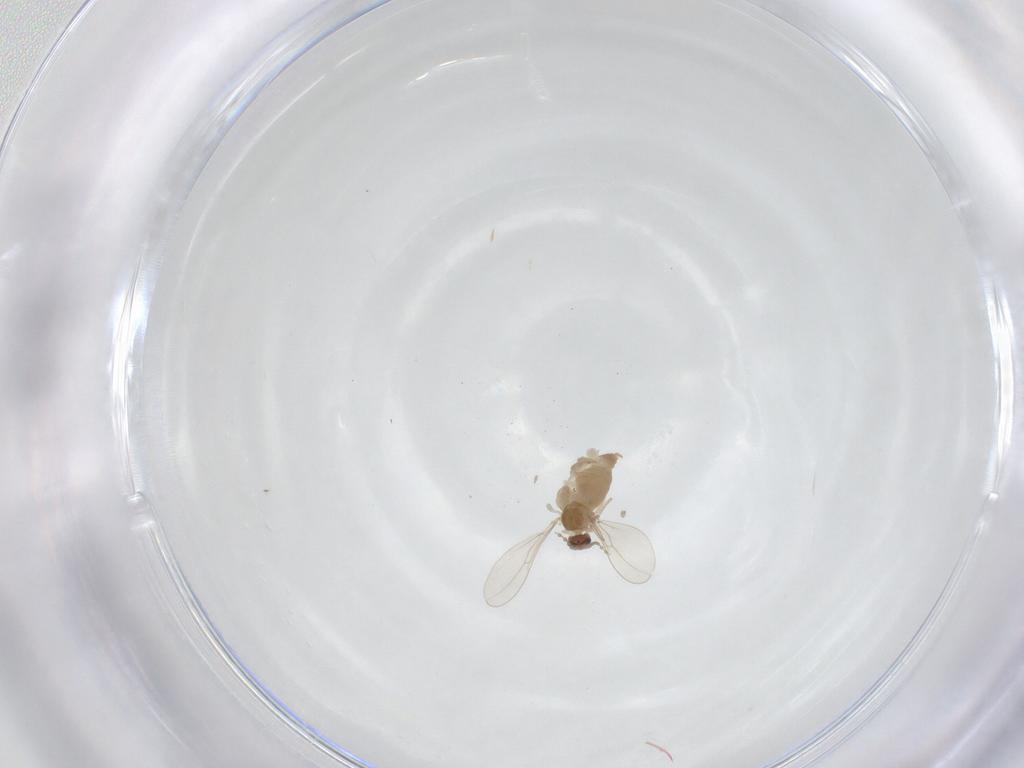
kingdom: Animalia
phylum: Arthropoda
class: Insecta
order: Diptera
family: Cecidomyiidae
